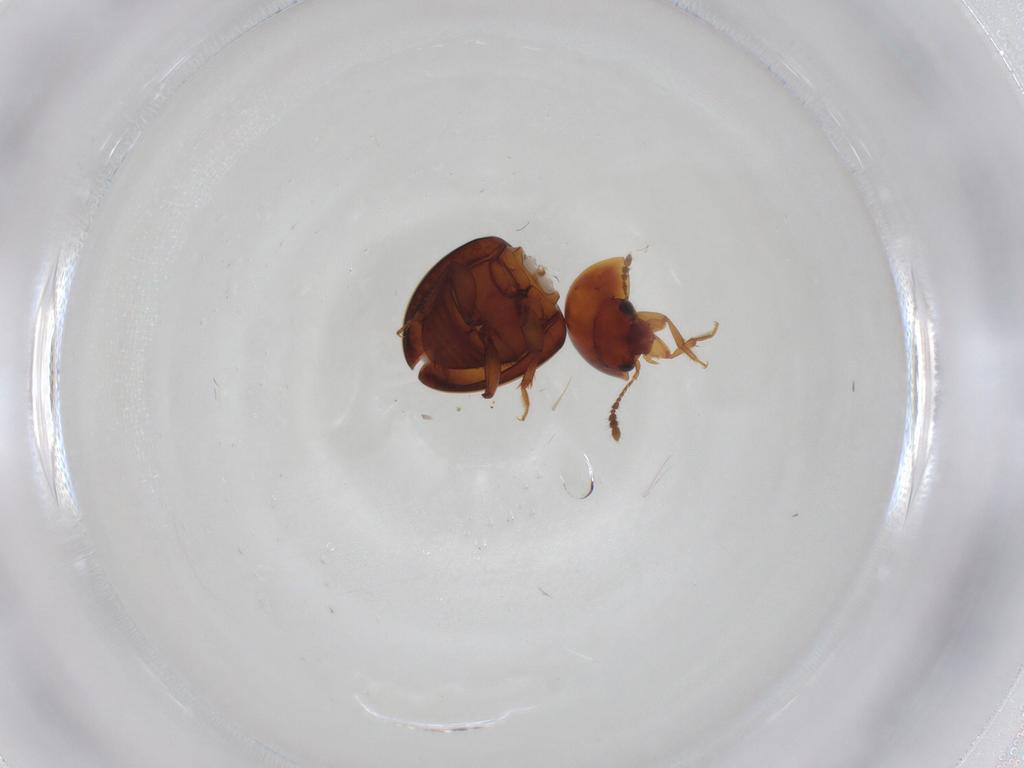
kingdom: Animalia
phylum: Arthropoda
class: Insecta
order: Coleoptera
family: Leiodidae
